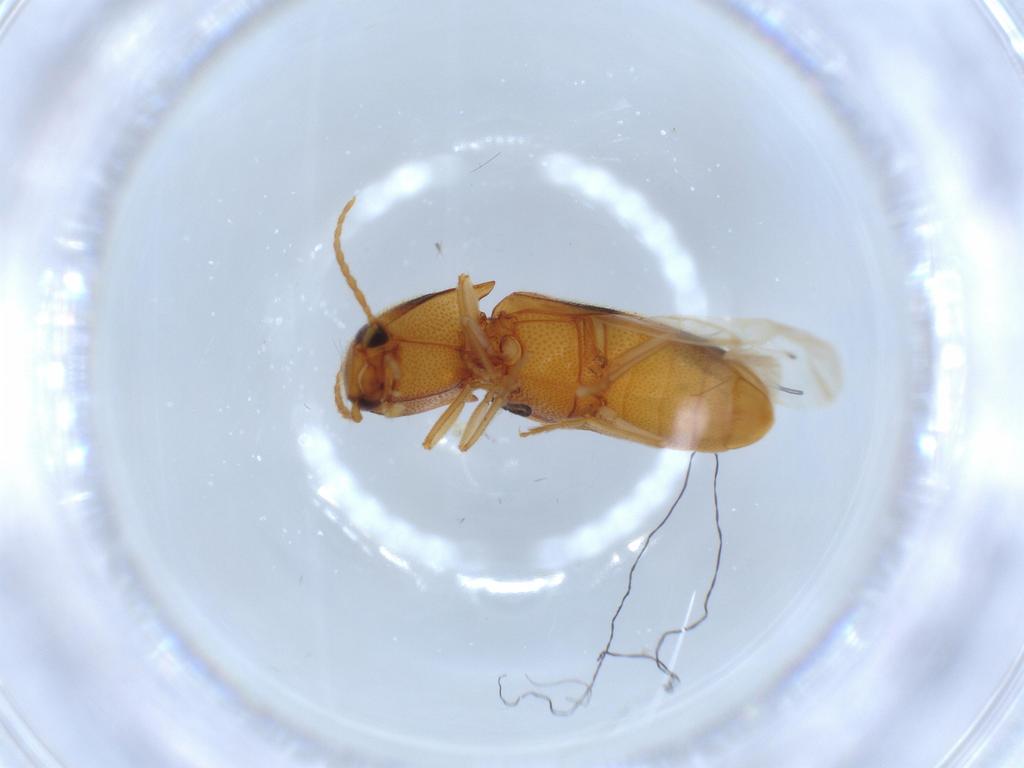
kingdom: Animalia
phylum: Arthropoda
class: Insecta
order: Coleoptera
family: Elateridae
